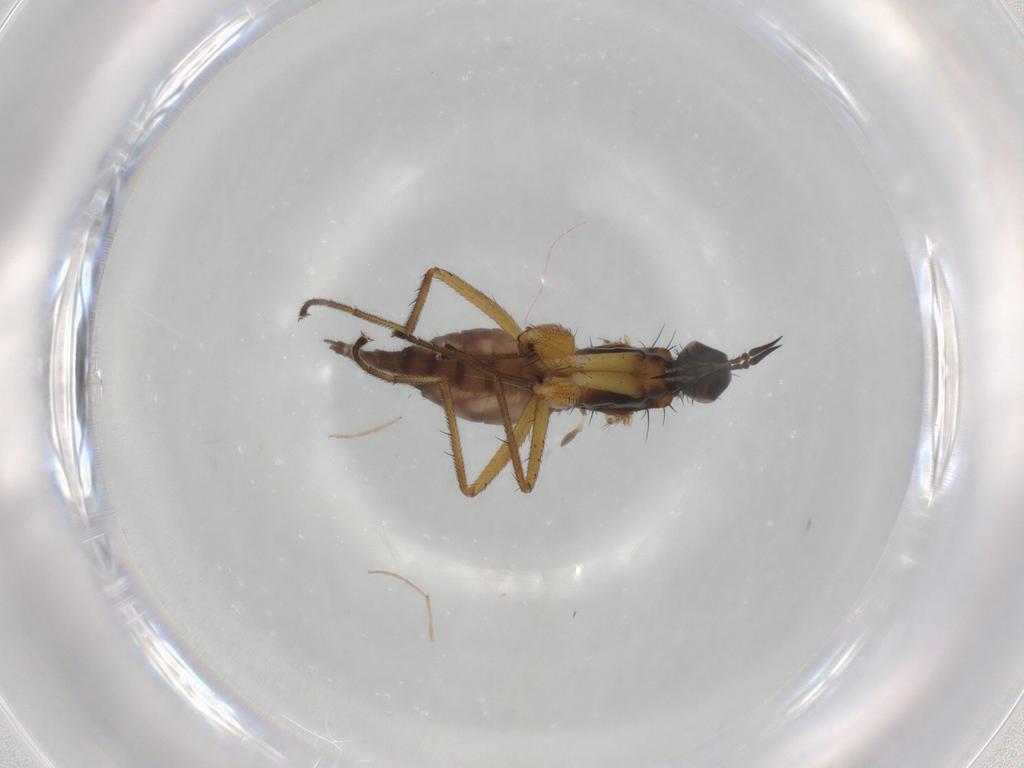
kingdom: Animalia
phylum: Arthropoda
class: Insecta
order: Diptera
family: Empididae
